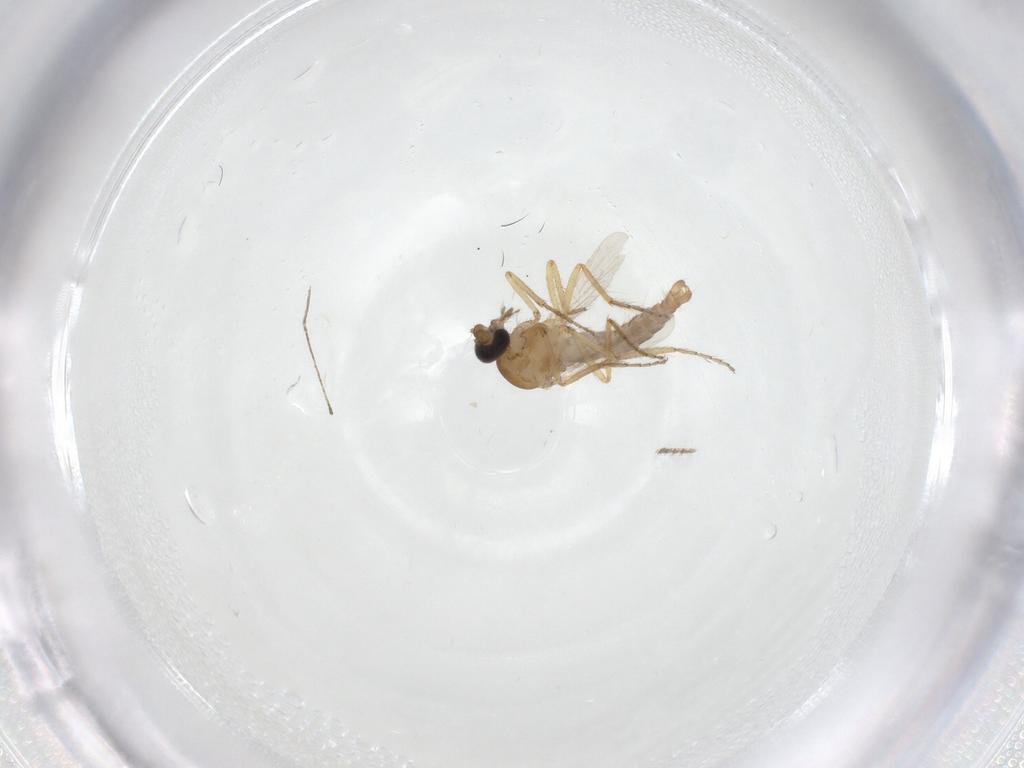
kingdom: Animalia
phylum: Arthropoda
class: Insecta
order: Diptera
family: Ceratopogonidae
